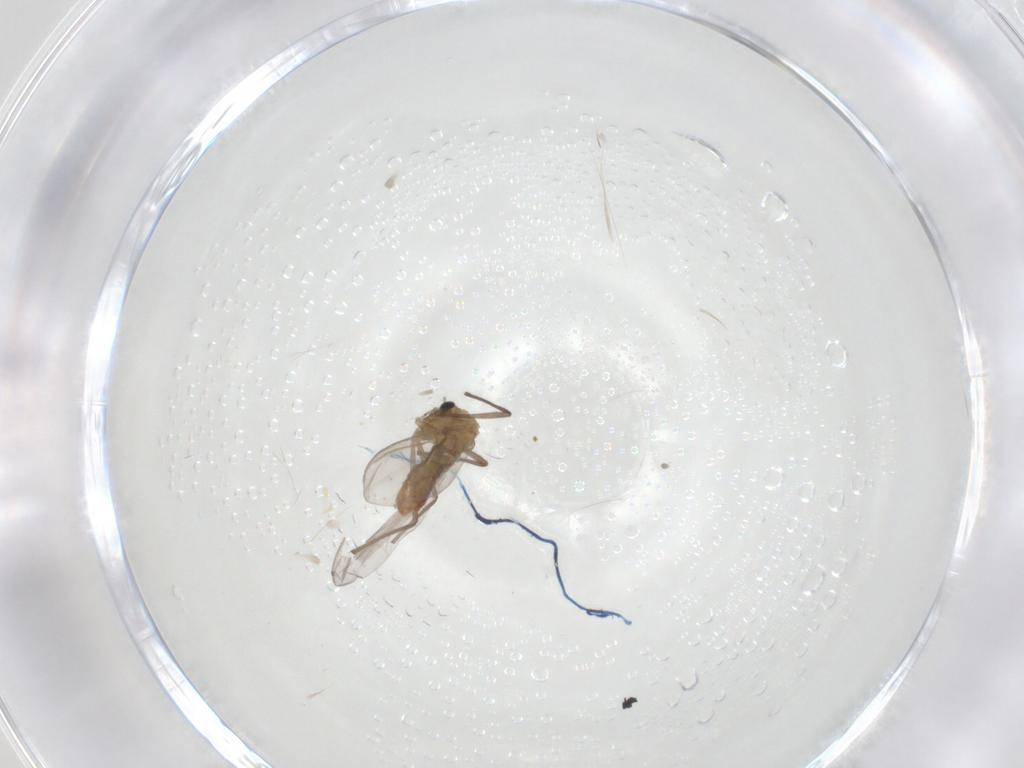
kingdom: Animalia
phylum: Arthropoda
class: Insecta
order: Diptera
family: Chironomidae
